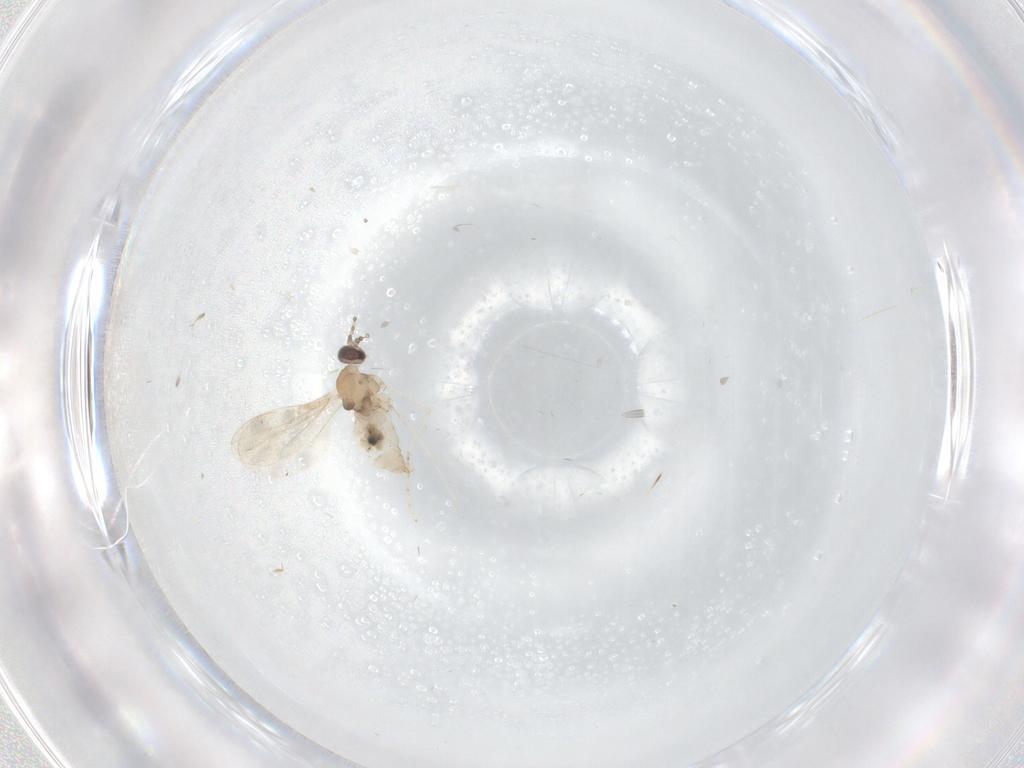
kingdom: Animalia
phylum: Arthropoda
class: Insecta
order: Diptera
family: Cecidomyiidae
